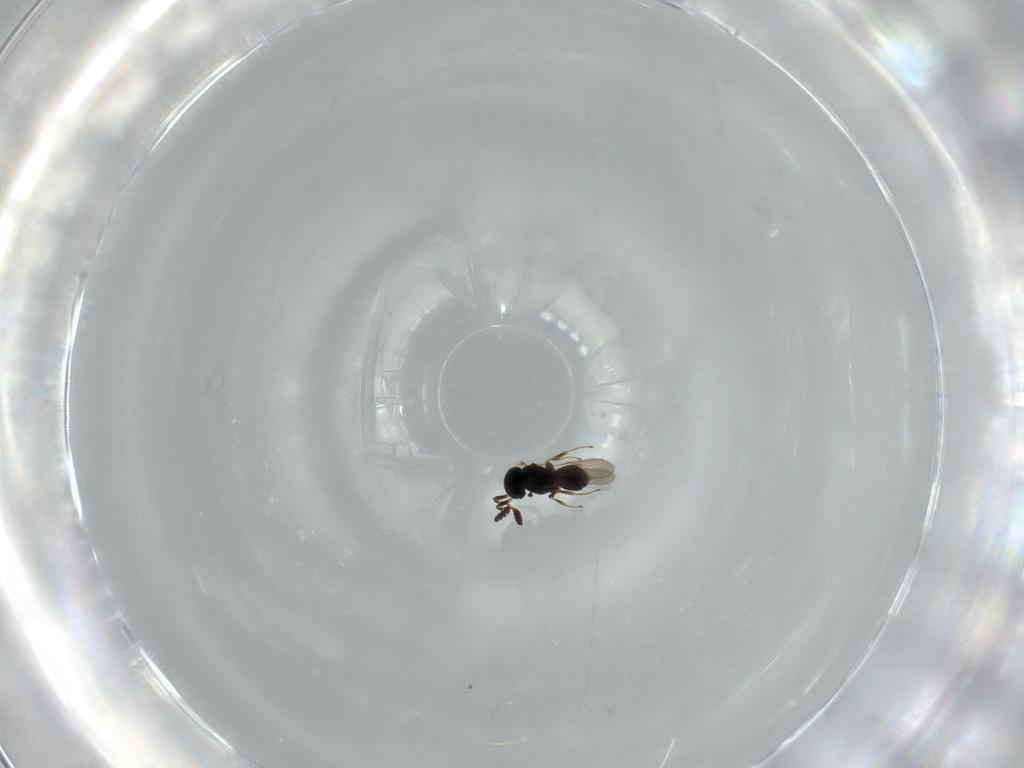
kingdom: Animalia
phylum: Arthropoda
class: Insecta
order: Hymenoptera
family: Scelionidae
